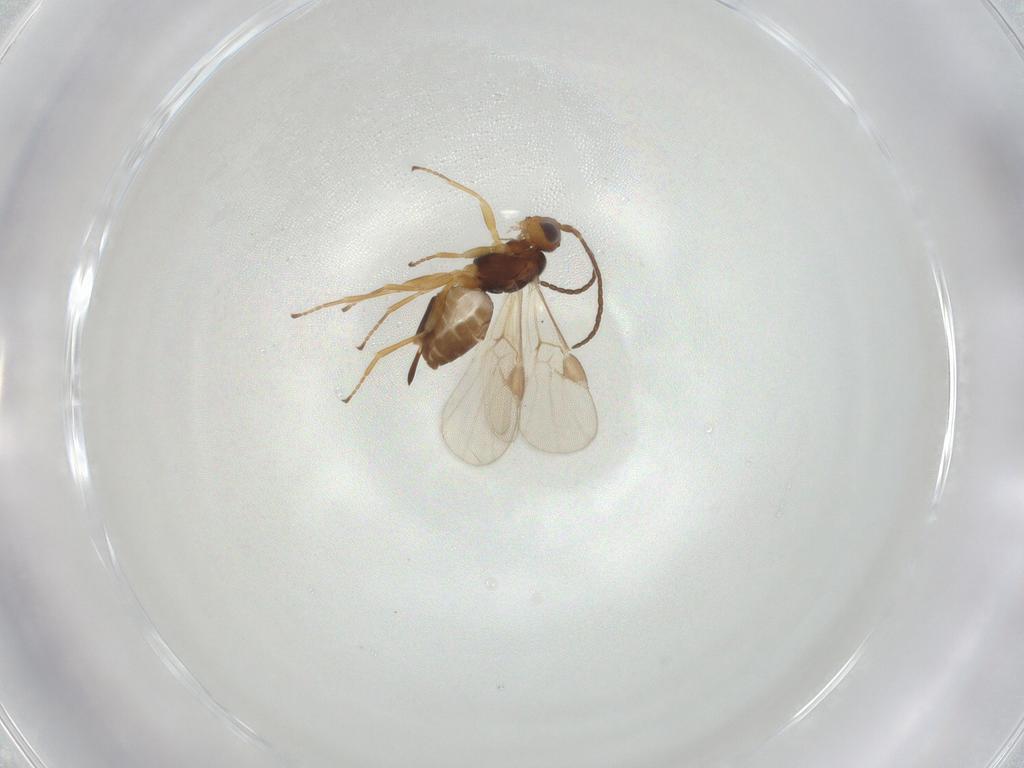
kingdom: Animalia
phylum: Arthropoda
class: Insecta
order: Hymenoptera
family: Braconidae
